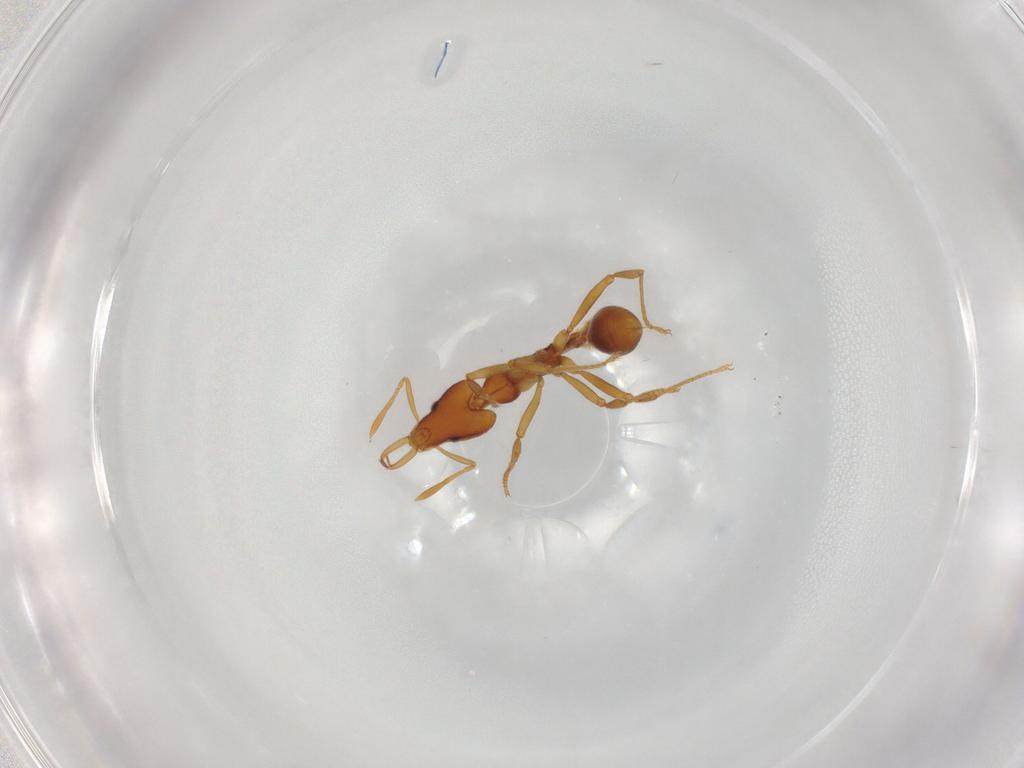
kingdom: Animalia
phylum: Arthropoda
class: Insecta
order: Hymenoptera
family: Formicidae
